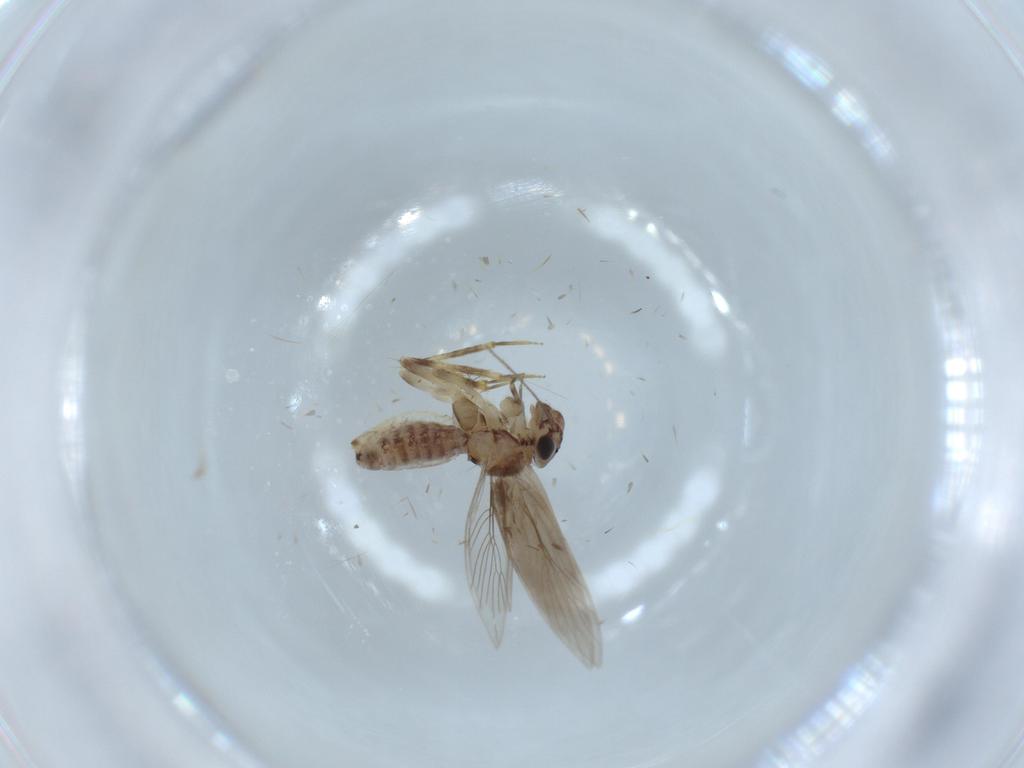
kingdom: Animalia
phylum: Arthropoda
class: Insecta
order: Psocodea
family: Lepidopsocidae
